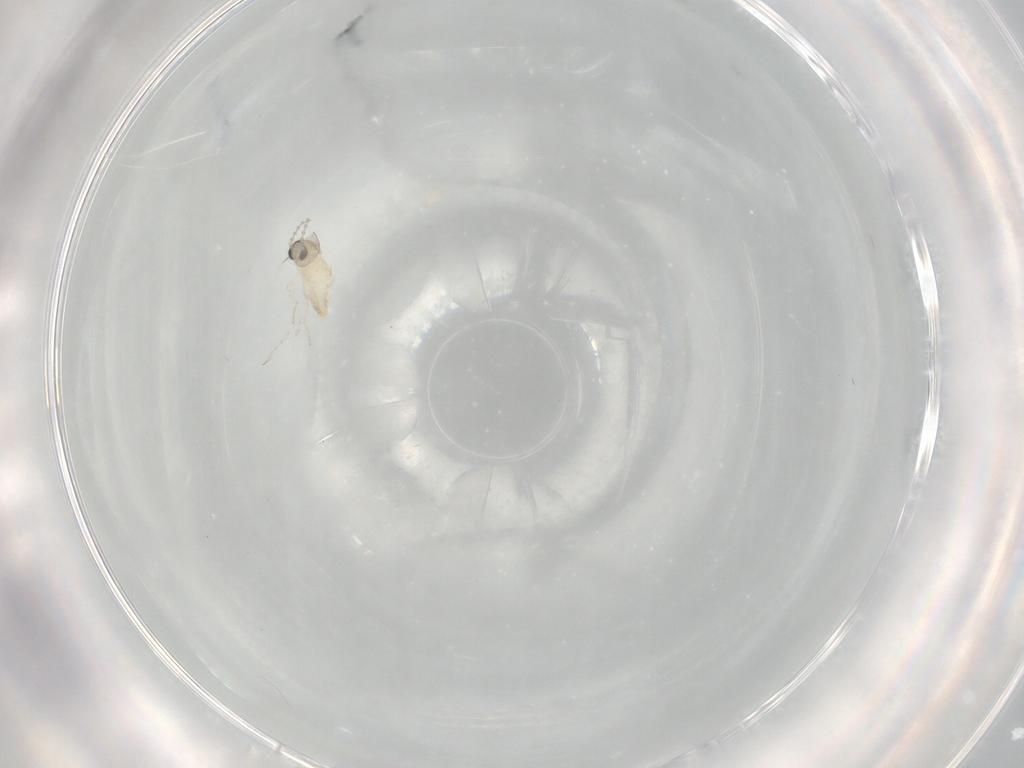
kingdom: Animalia
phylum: Arthropoda
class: Insecta
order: Diptera
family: Cecidomyiidae
